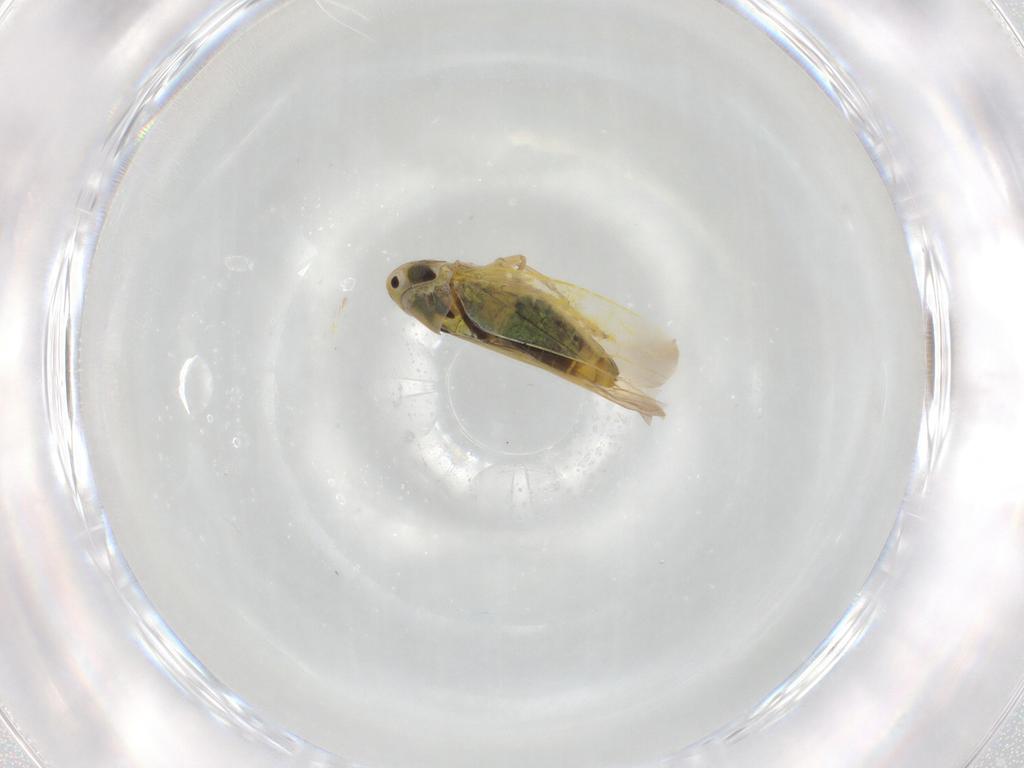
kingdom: Animalia
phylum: Arthropoda
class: Insecta
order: Hemiptera
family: Cicadellidae
